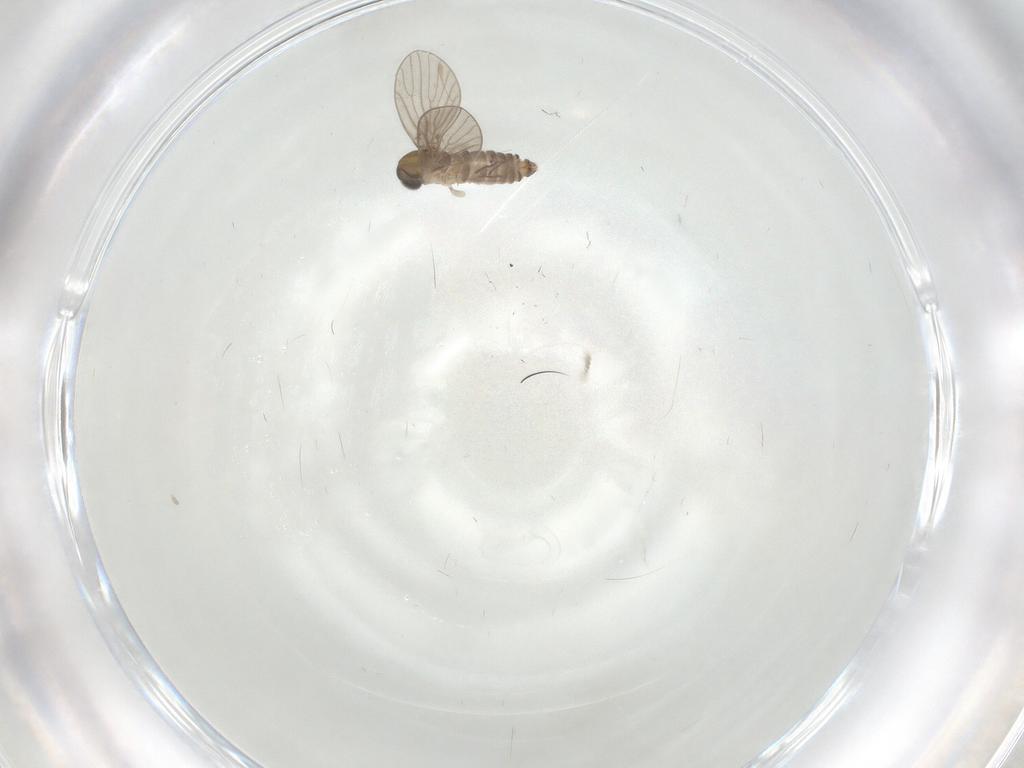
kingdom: Animalia
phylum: Arthropoda
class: Insecta
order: Diptera
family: Psychodidae
